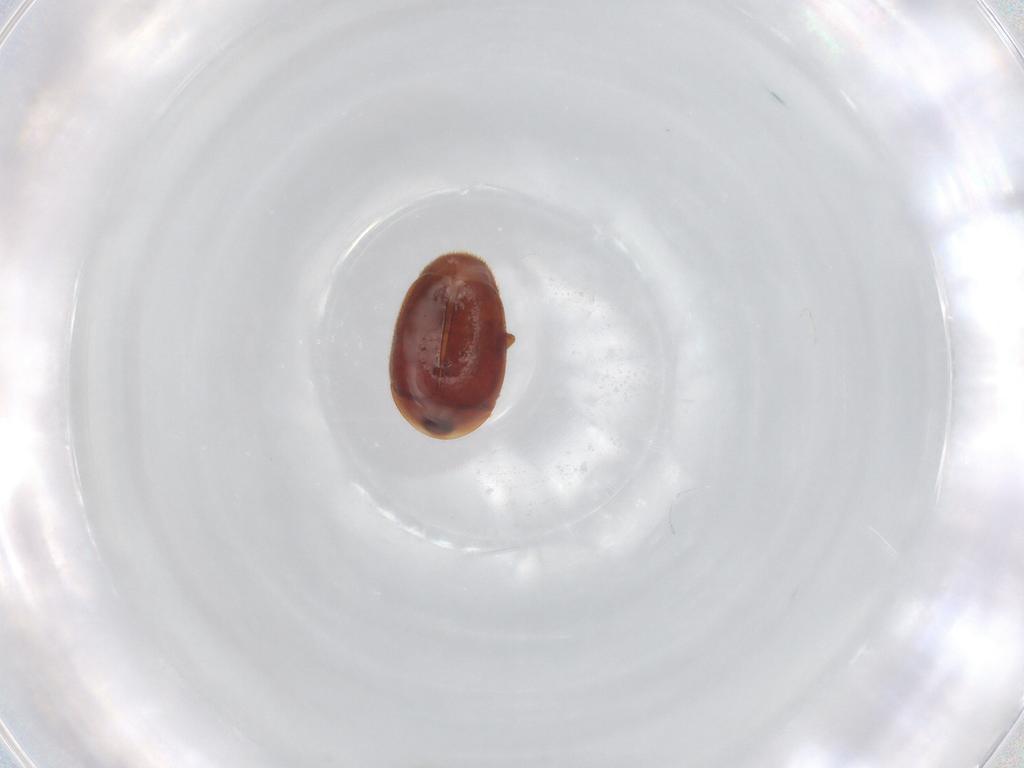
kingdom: Animalia
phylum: Arthropoda
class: Insecta
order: Coleoptera
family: Corylophidae
